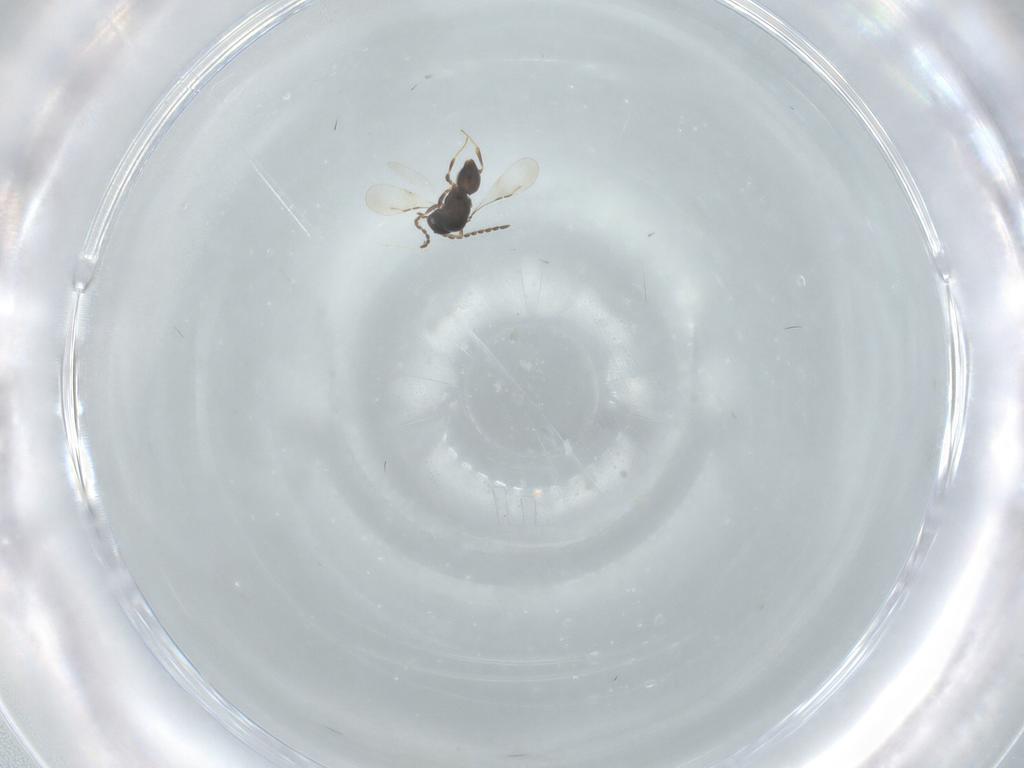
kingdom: Animalia
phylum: Arthropoda
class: Insecta
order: Hymenoptera
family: Ceraphronidae
